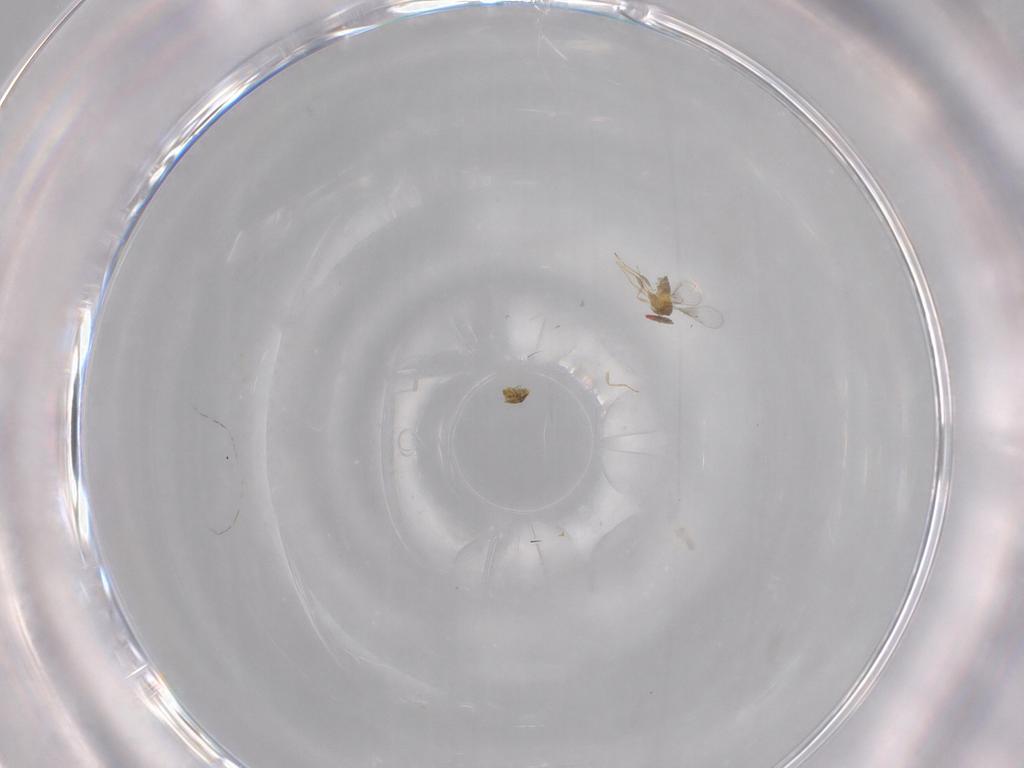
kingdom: Animalia
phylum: Arthropoda
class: Insecta
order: Hymenoptera
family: Trichogrammatidae
